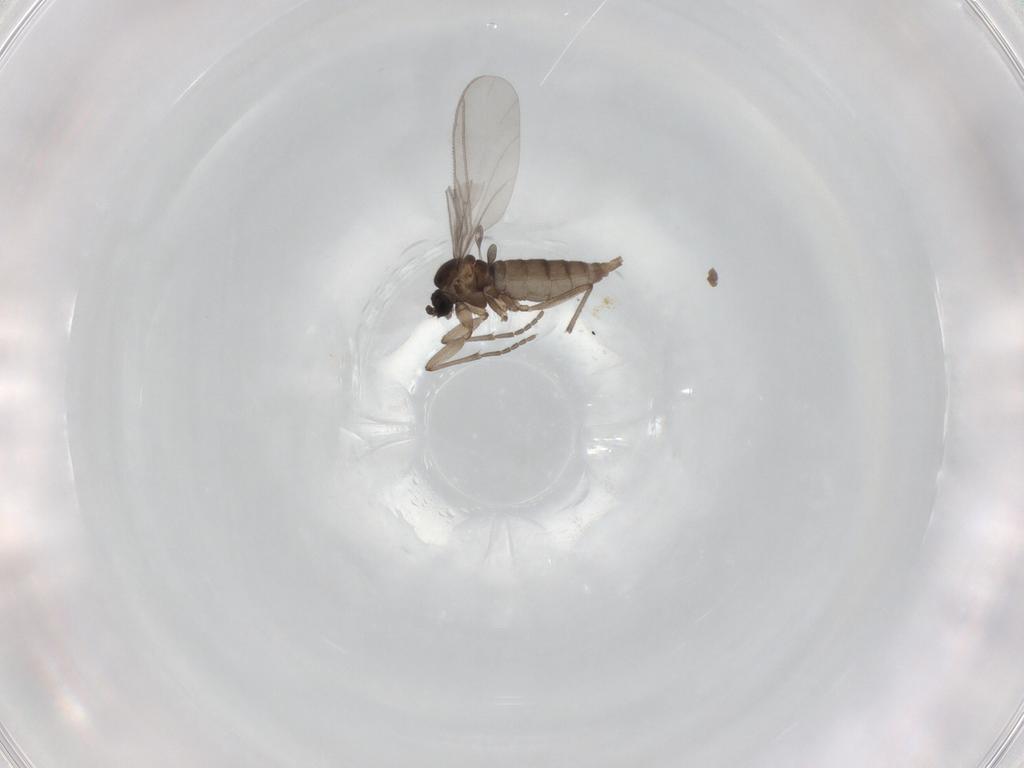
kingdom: Animalia
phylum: Arthropoda
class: Insecta
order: Diptera
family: Sciaridae
